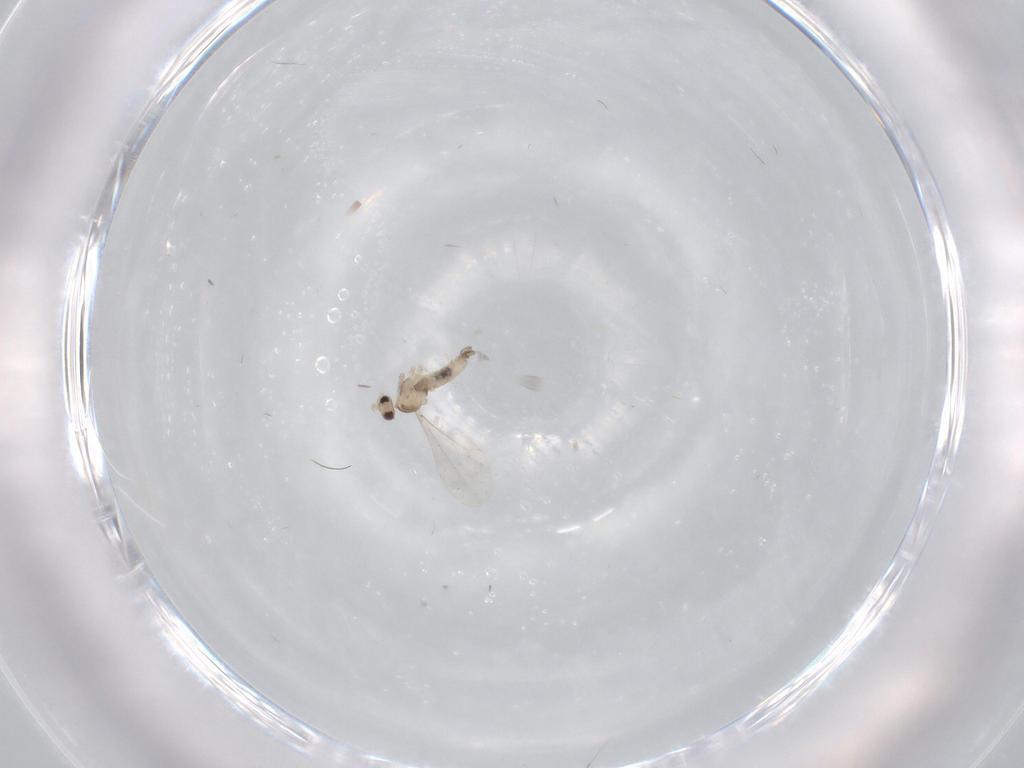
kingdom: Animalia
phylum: Arthropoda
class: Insecta
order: Diptera
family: Cecidomyiidae
